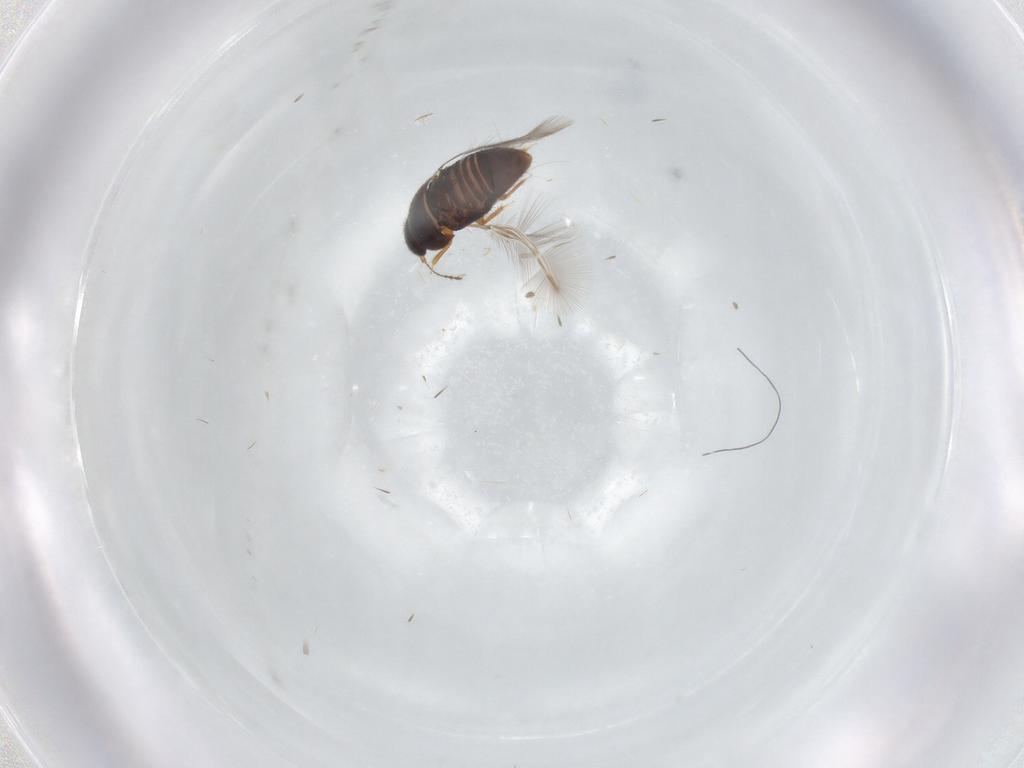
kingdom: Animalia
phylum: Arthropoda
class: Insecta
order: Coleoptera
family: Ptilodactylidae
